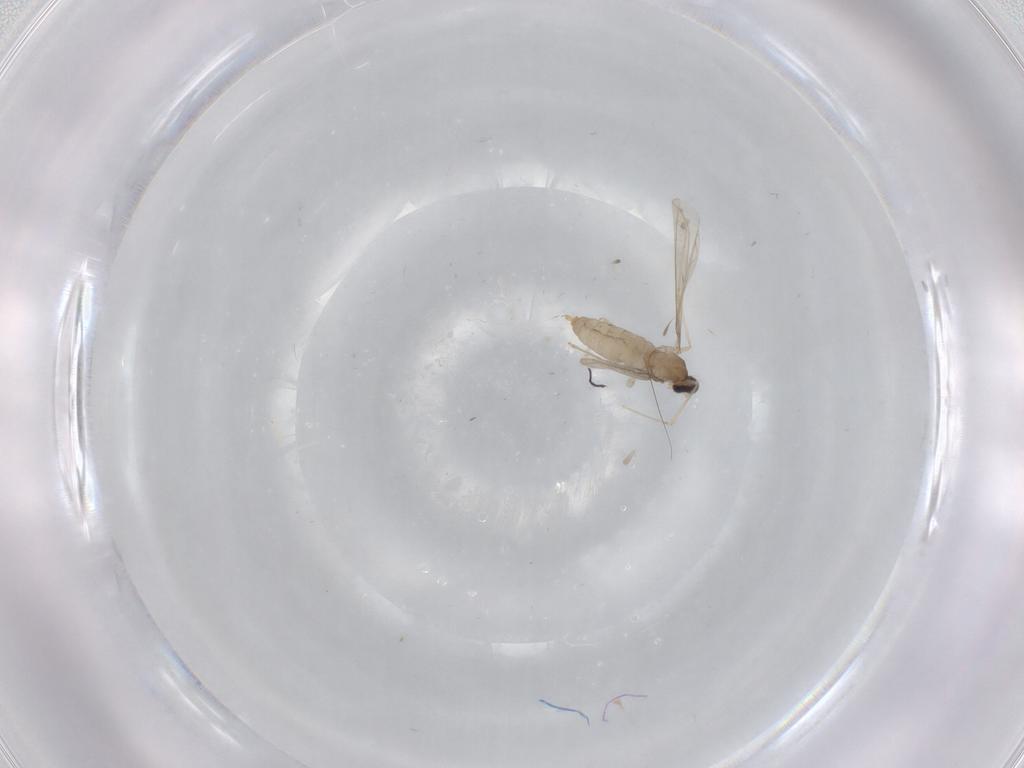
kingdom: Animalia
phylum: Arthropoda
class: Insecta
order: Diptera
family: Cecidomyiidae
